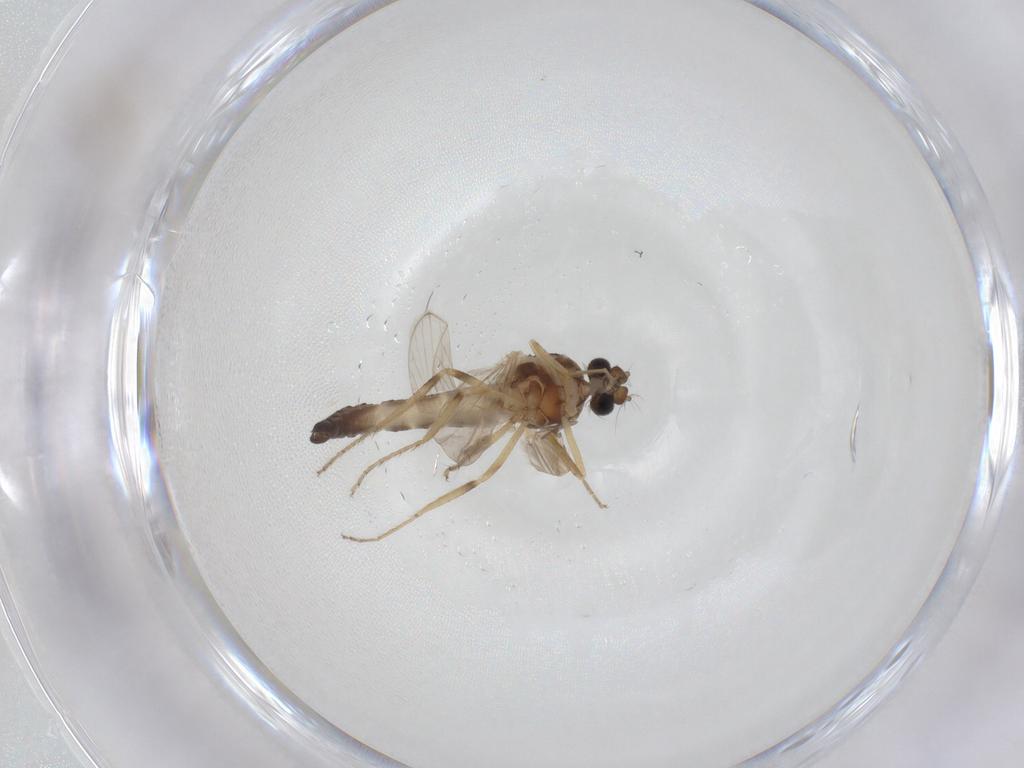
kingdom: Animalia
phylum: Arthropoda
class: Insecta
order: Diptera
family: Ceratopogonidae
